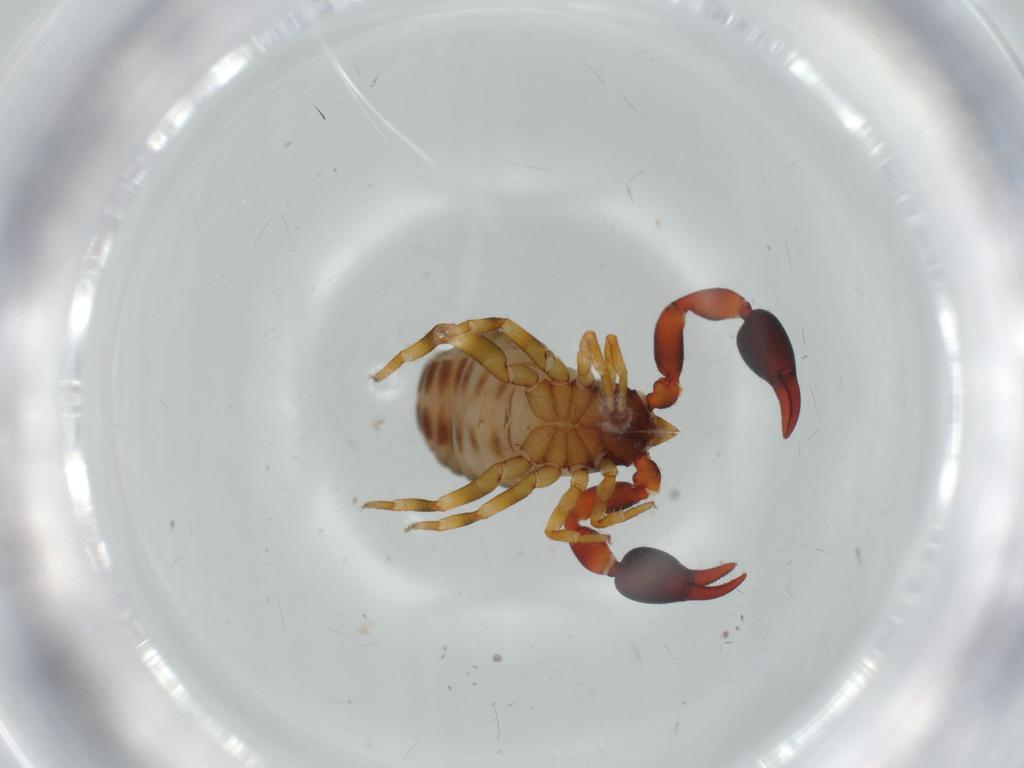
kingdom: Animalia
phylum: Arthropoda
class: Arachnida
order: Pseudoscorpiones
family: Chernetidae
